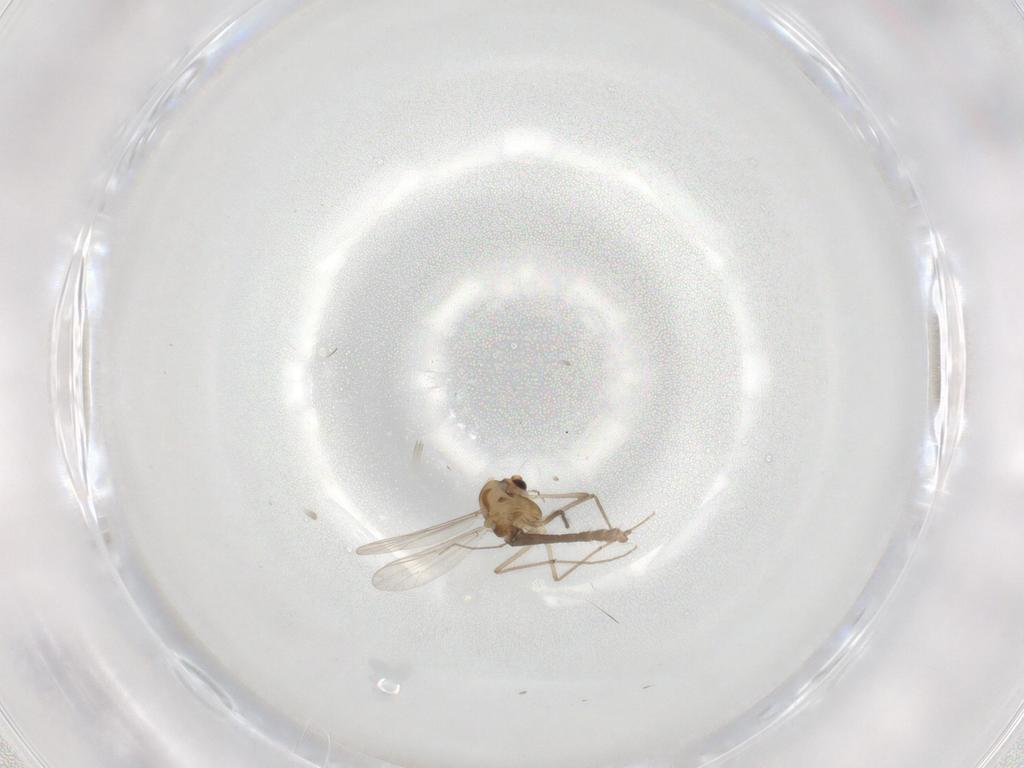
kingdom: Animalia
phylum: Arthropoda
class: Insecta
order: Diptera
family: Chironomidae
